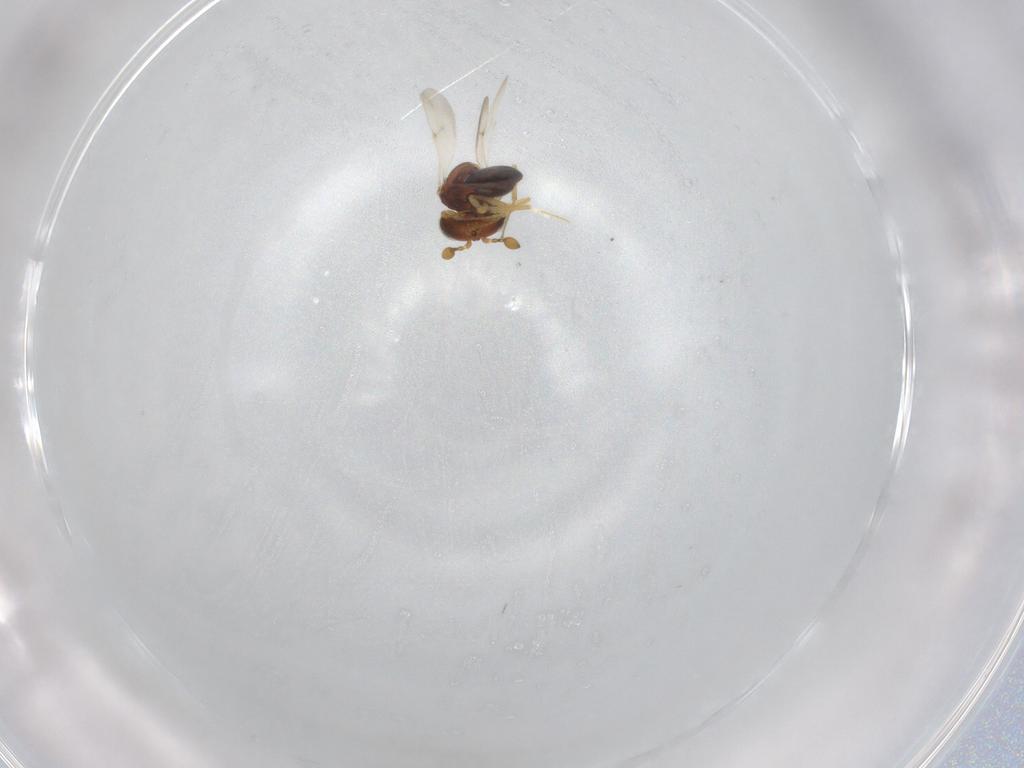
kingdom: Animalia
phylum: Arthropoda
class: Insecta
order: Hymenoptera
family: Scelionidae
